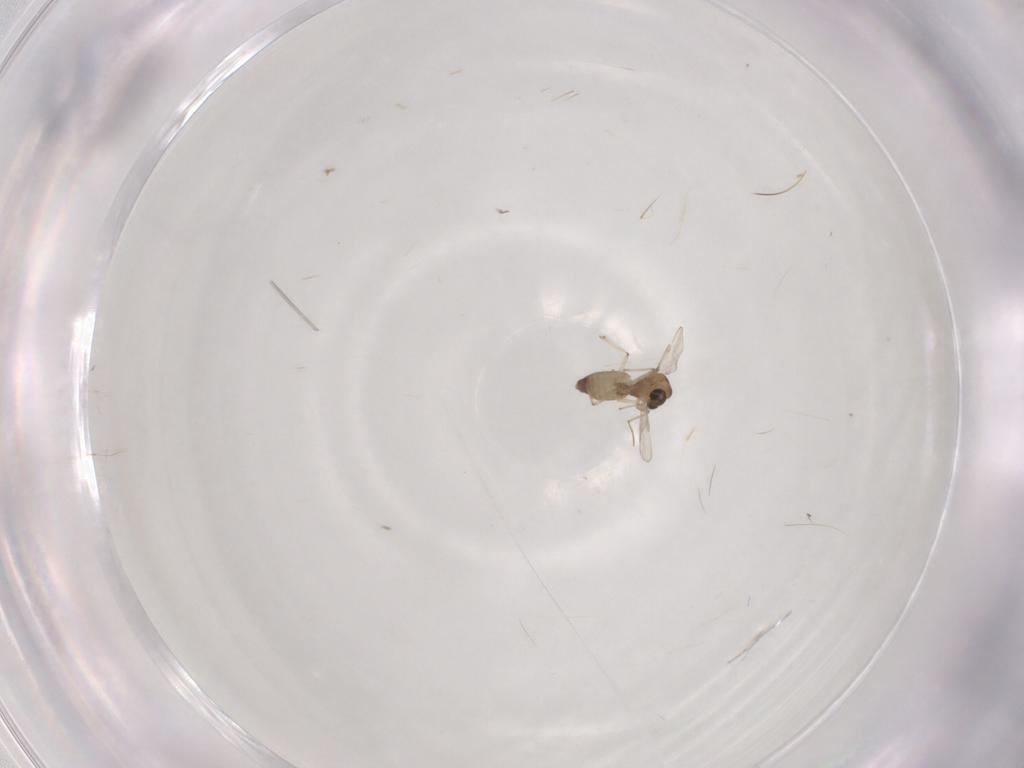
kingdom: Animalia
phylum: Arthropoda
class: Insecta
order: Diptera
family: Chironomidae
